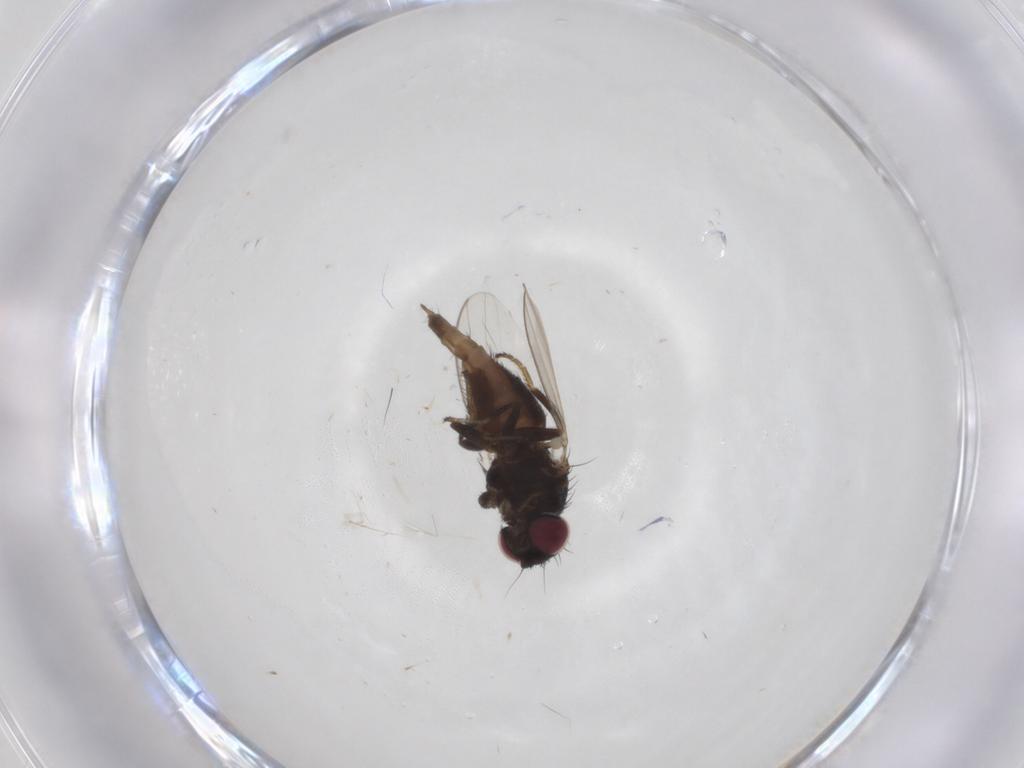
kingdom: Animalia
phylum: Arthropoda
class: Insecta
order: Diptera
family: Milichiidae
